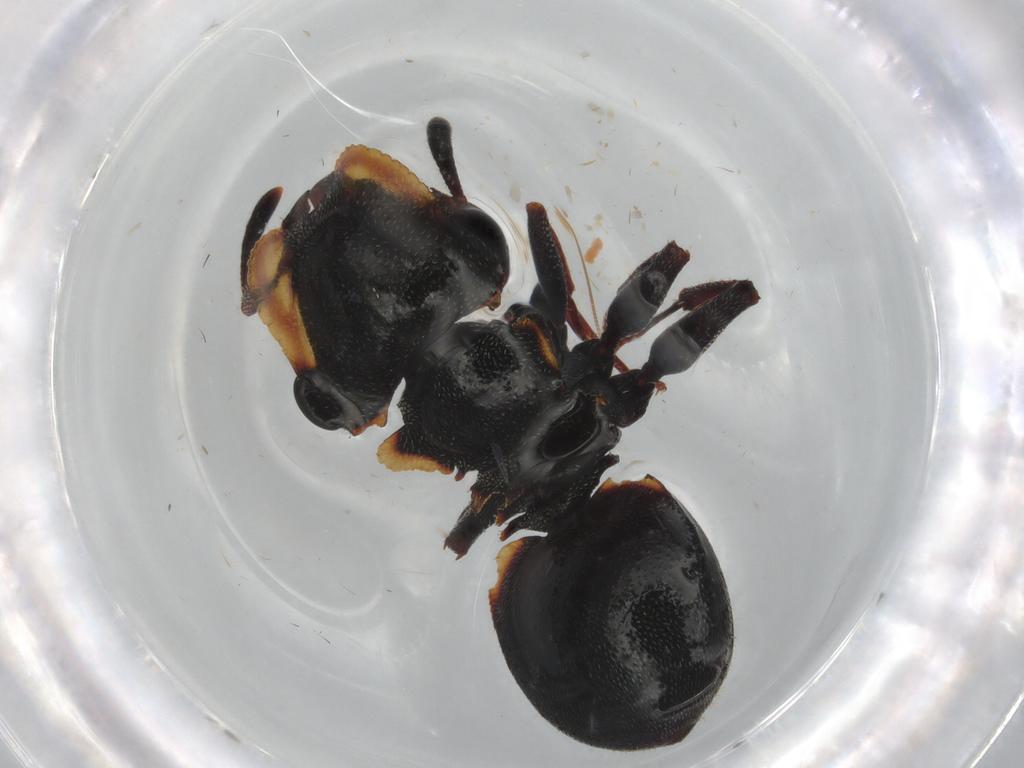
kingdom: Animalia
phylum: Arthropoda
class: Insecta
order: Hymenoptera
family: Formicidae
